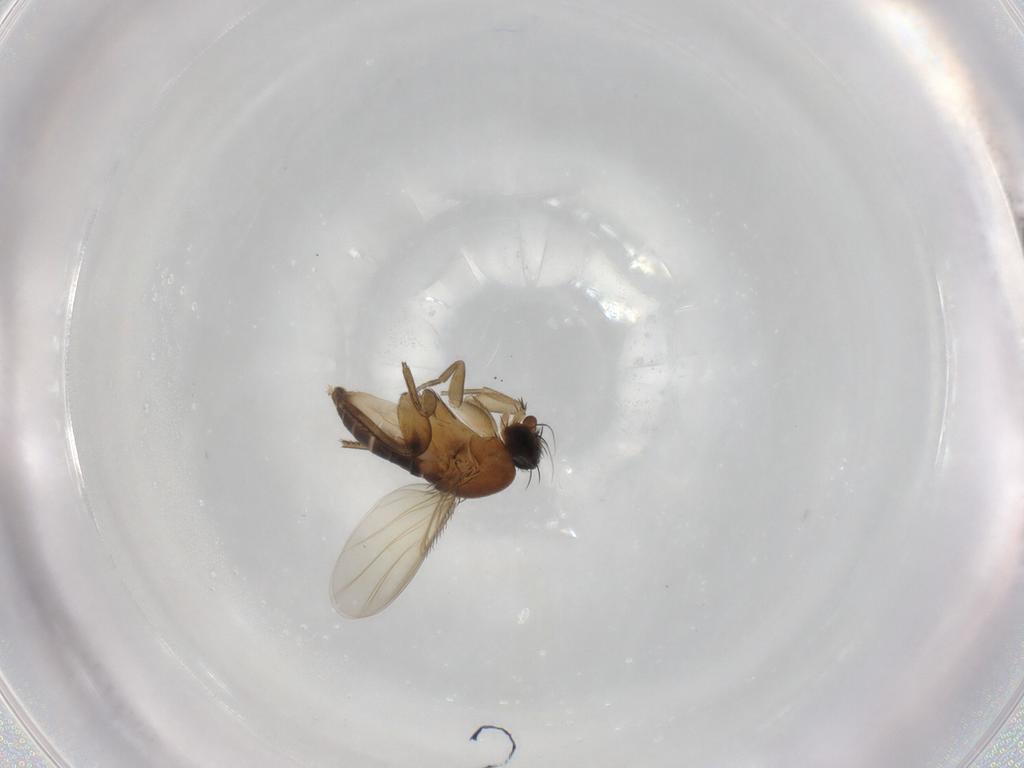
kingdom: Animalia
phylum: Arthropoda
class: Insecta
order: Diptera
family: Phoridae
